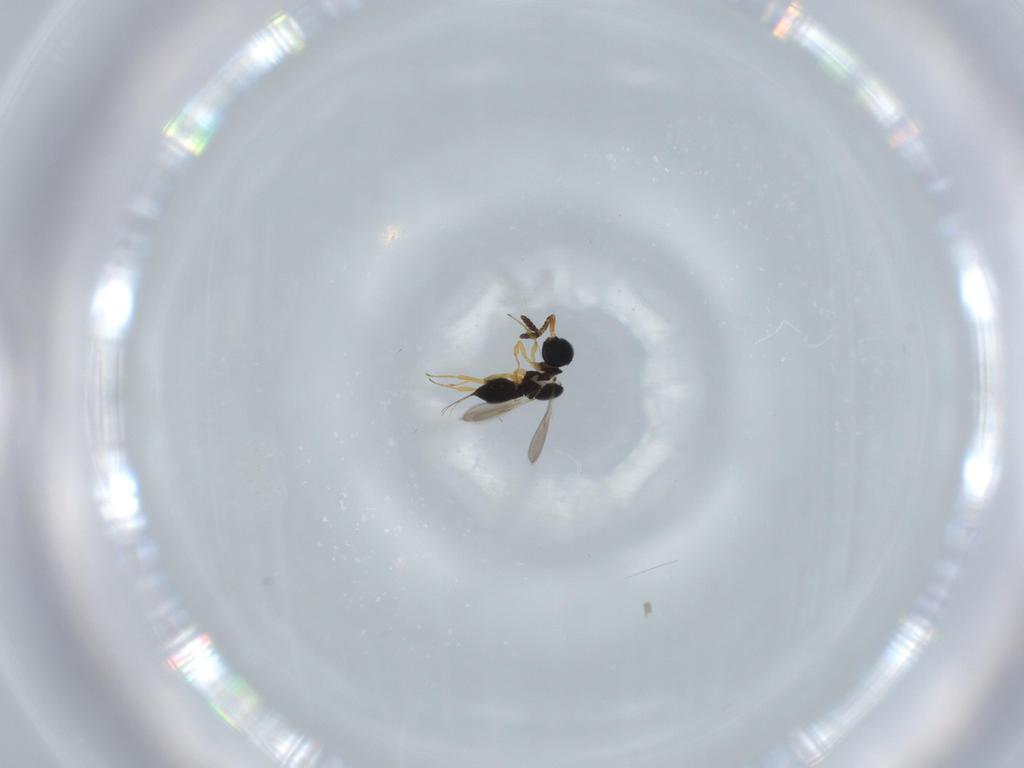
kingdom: Animalia
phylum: Arthropoda
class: Insecta
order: Hymenoptera
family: Scelionidae
